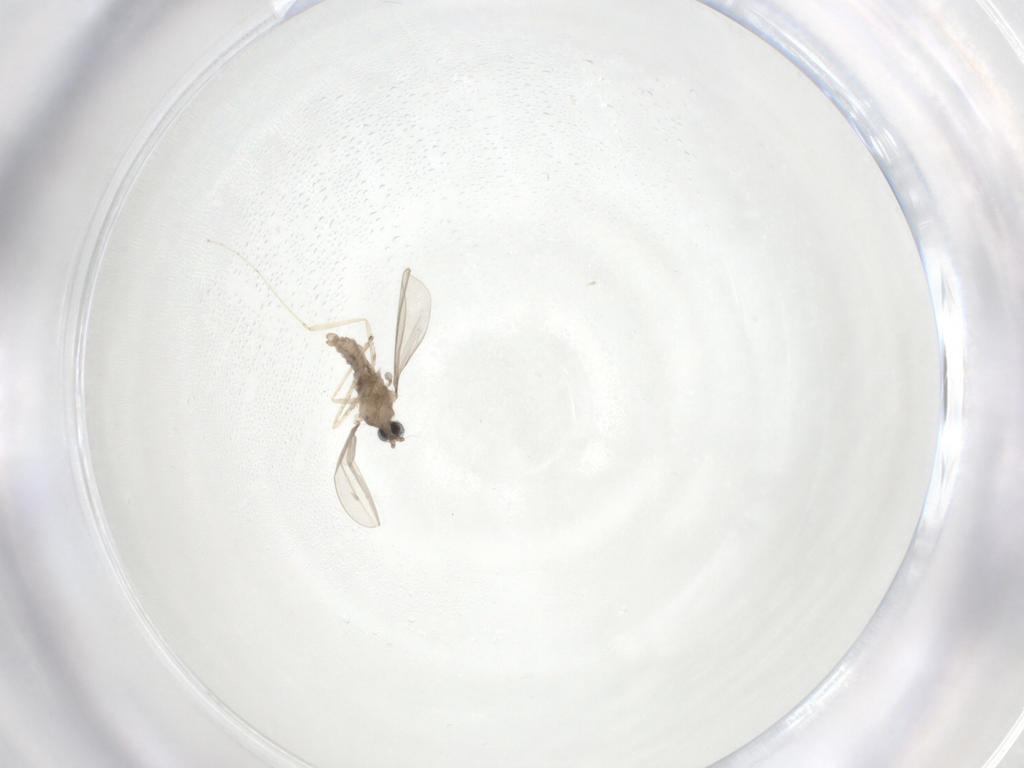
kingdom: Animalia
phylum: Arthropoda
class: Insecta
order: Diptera
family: Cecidomyiidae
